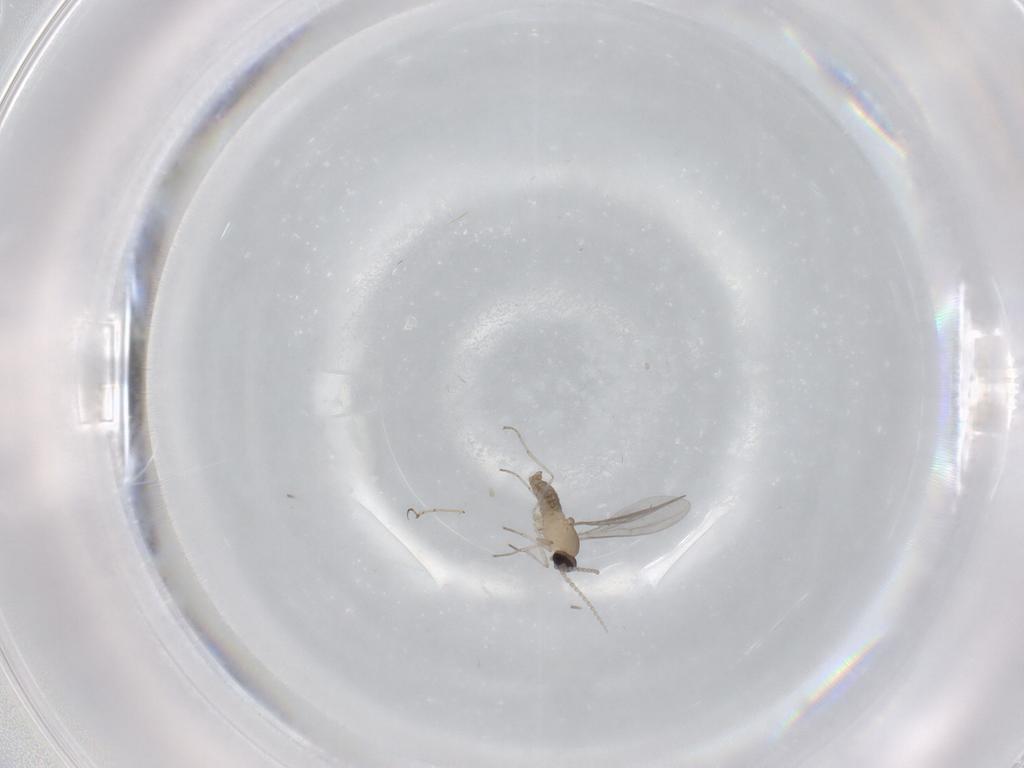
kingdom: Animalia
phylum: Arthropoda
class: Insecta
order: Diptera
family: Cecidomyiidae
